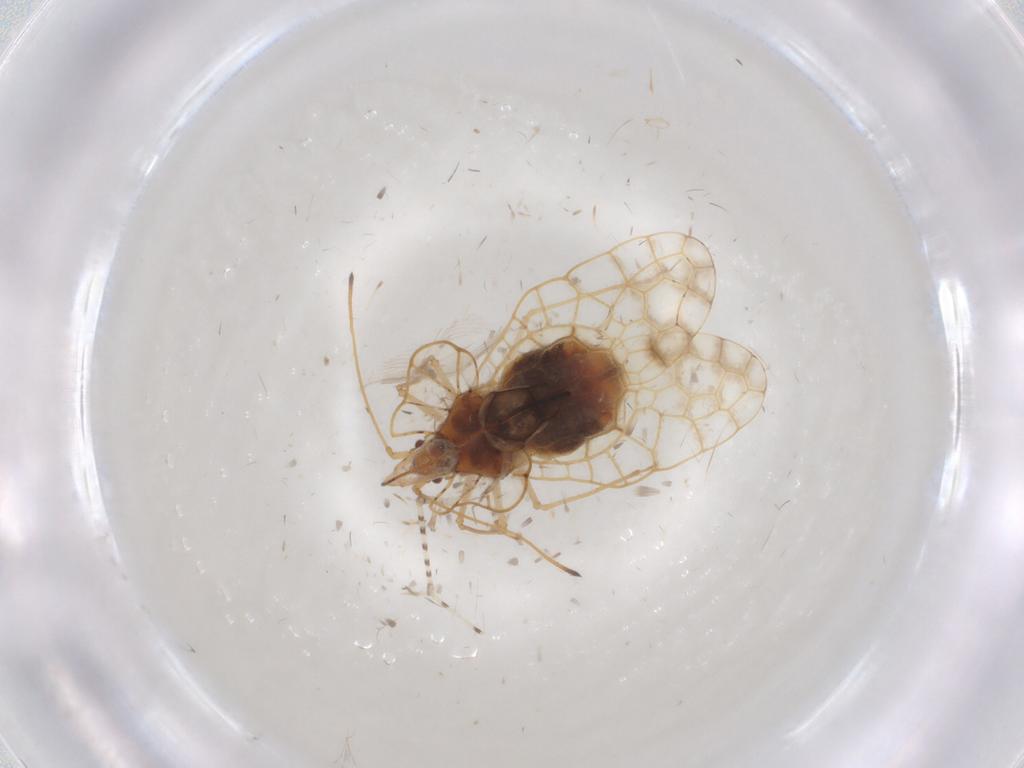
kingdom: Animalia
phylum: Arthropoda
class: Insecta
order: Hemiptera
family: Tingidae
